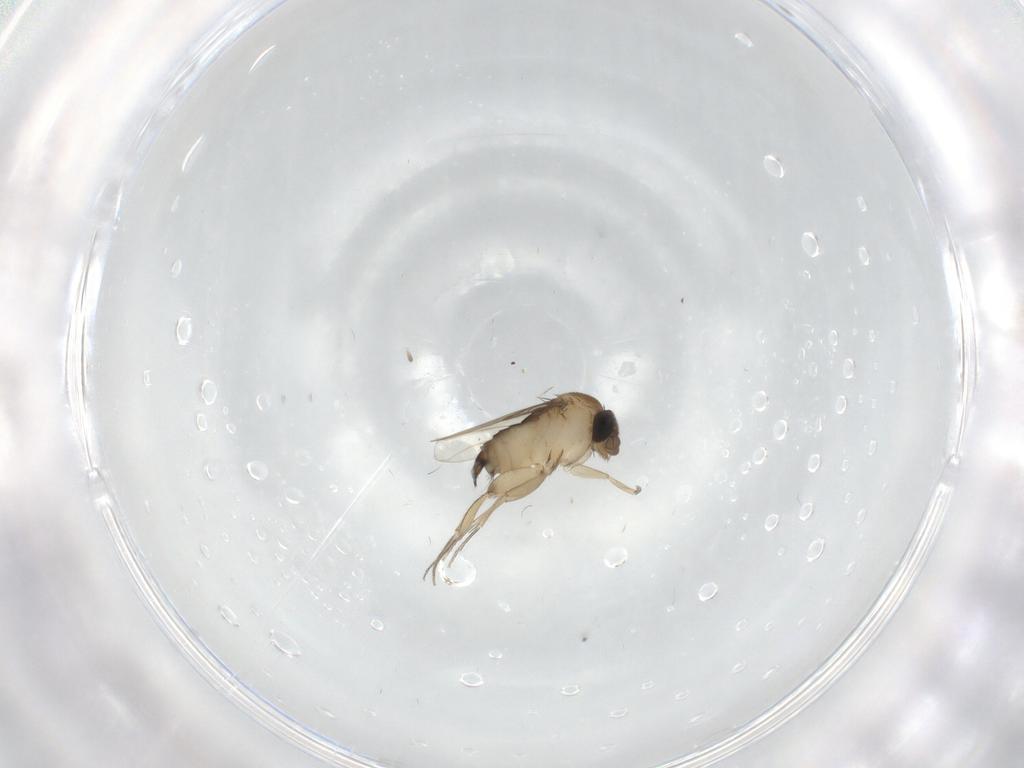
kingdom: Animalia
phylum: Arthropoda
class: Insecta
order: Diptera
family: Phoridae
